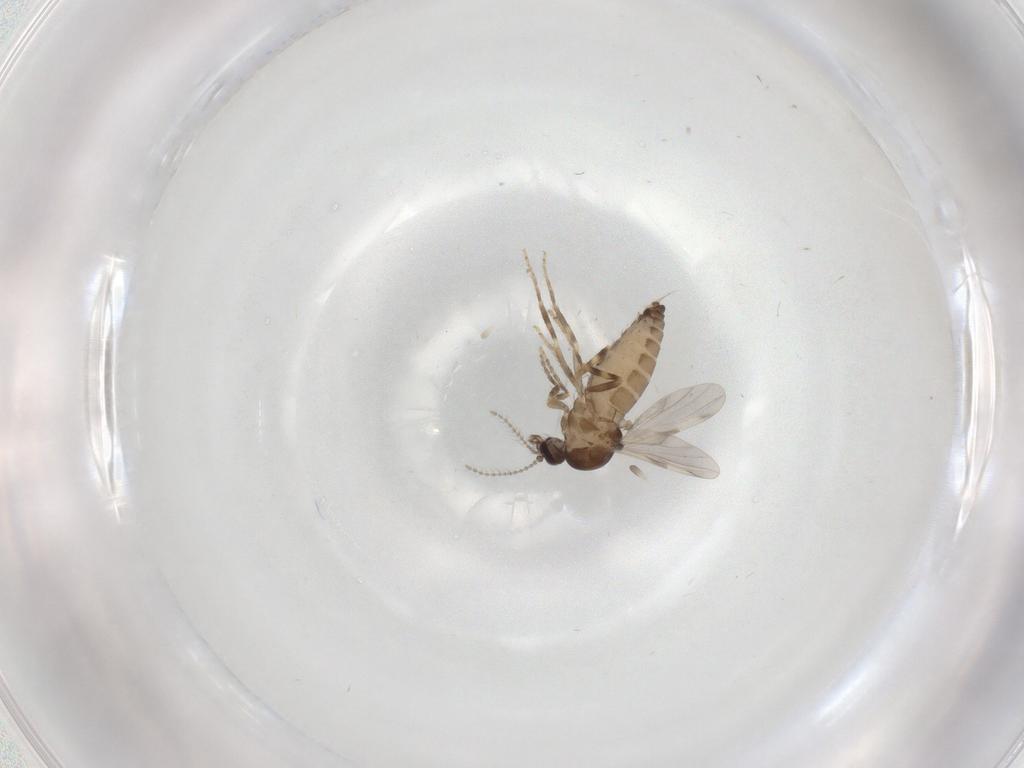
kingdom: Animalia
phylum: Arthropoda
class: Insecta
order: Diptera
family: Ceratopogonidae
